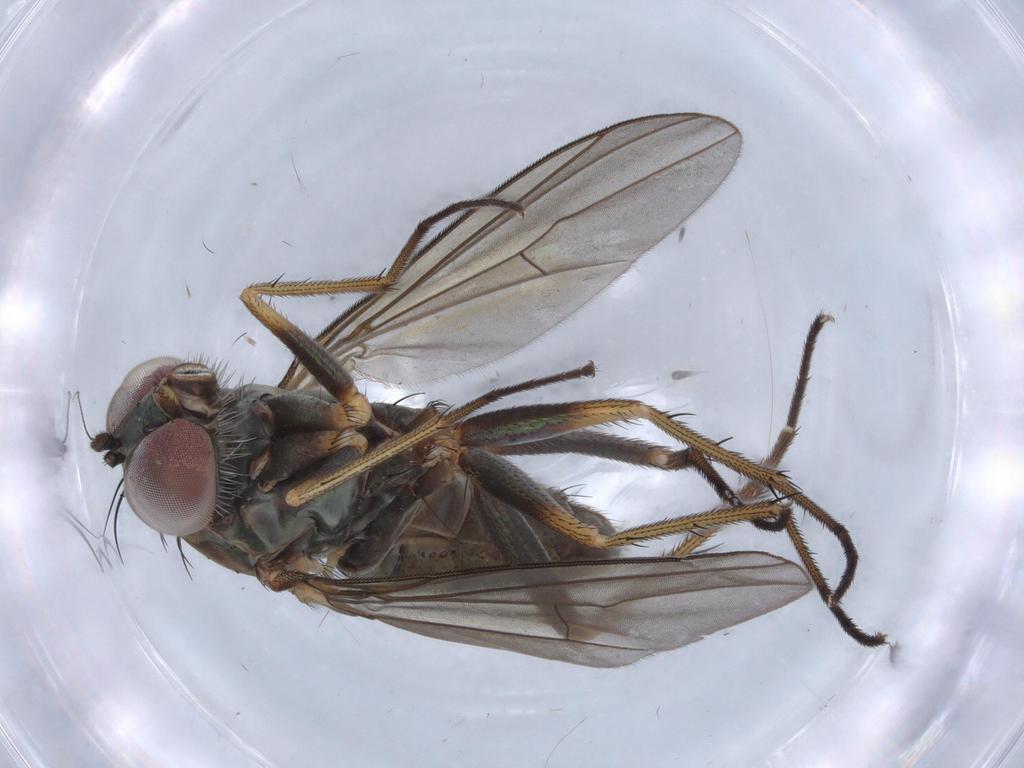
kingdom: Animalia
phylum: Arthropoda
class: Insecta
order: Diptera
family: Dolichopodidae
